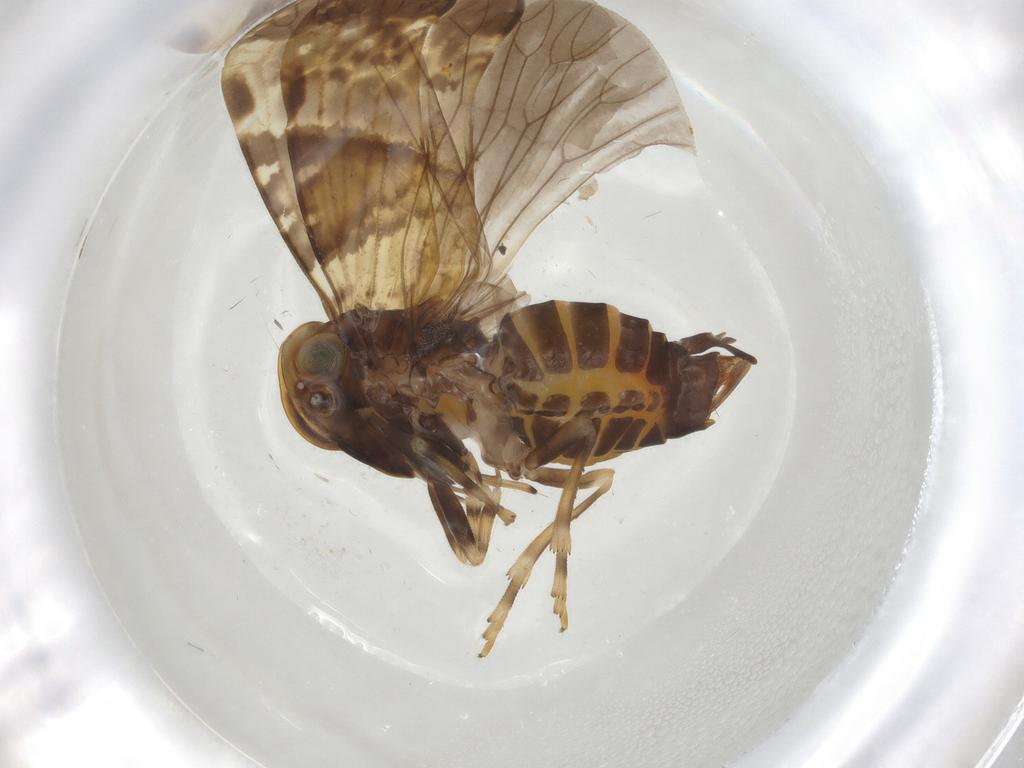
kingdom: Animalia
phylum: Arthropoda
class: Insecta
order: Hemiptera
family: Cixiidae
